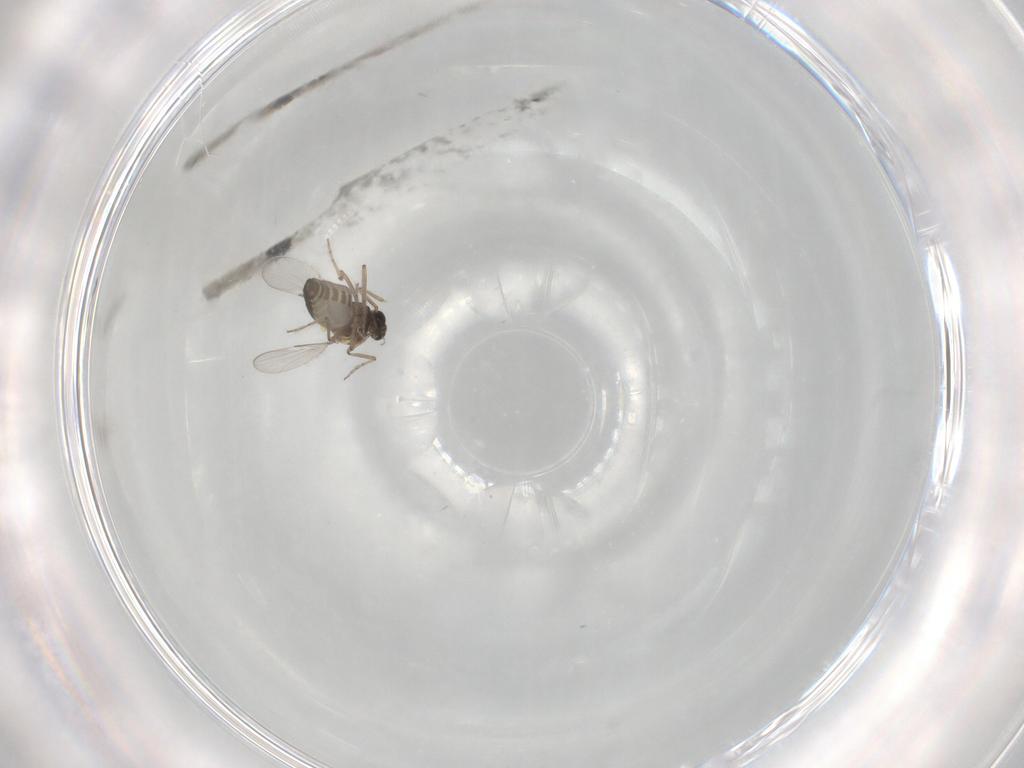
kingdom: Animalia
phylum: Arthropoda
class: Insecta
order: Diptera
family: Ceratopogonidae
